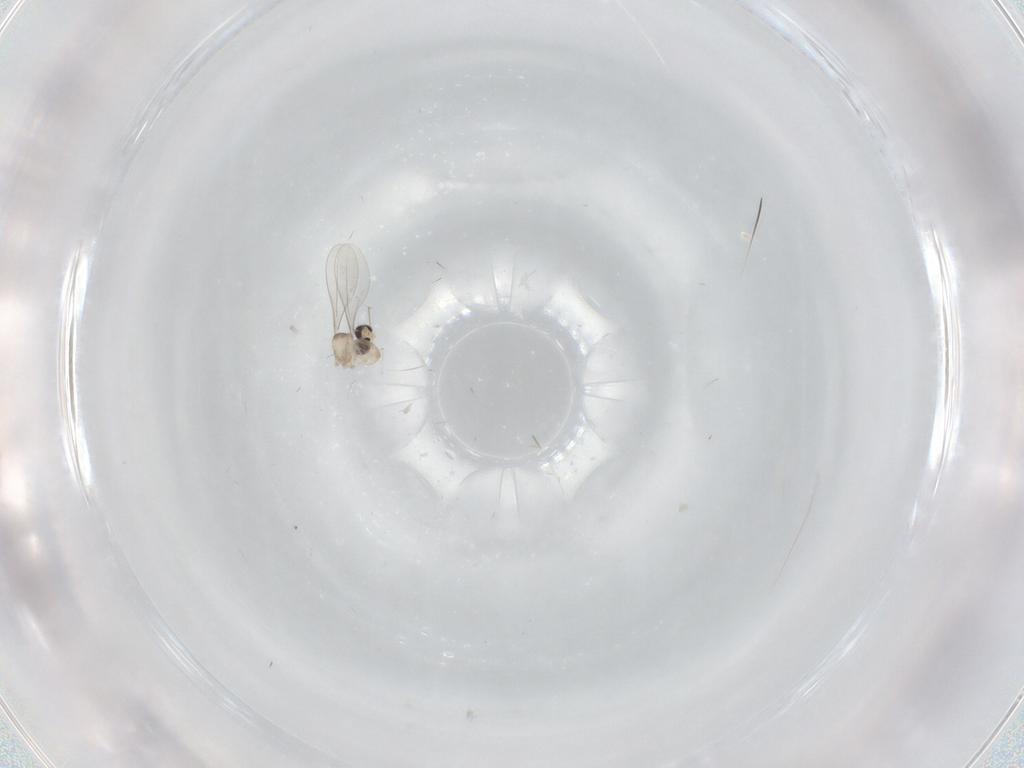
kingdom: Animalia
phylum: Arthropoda
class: Insecta
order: Diptera
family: Cecidomyiidae
